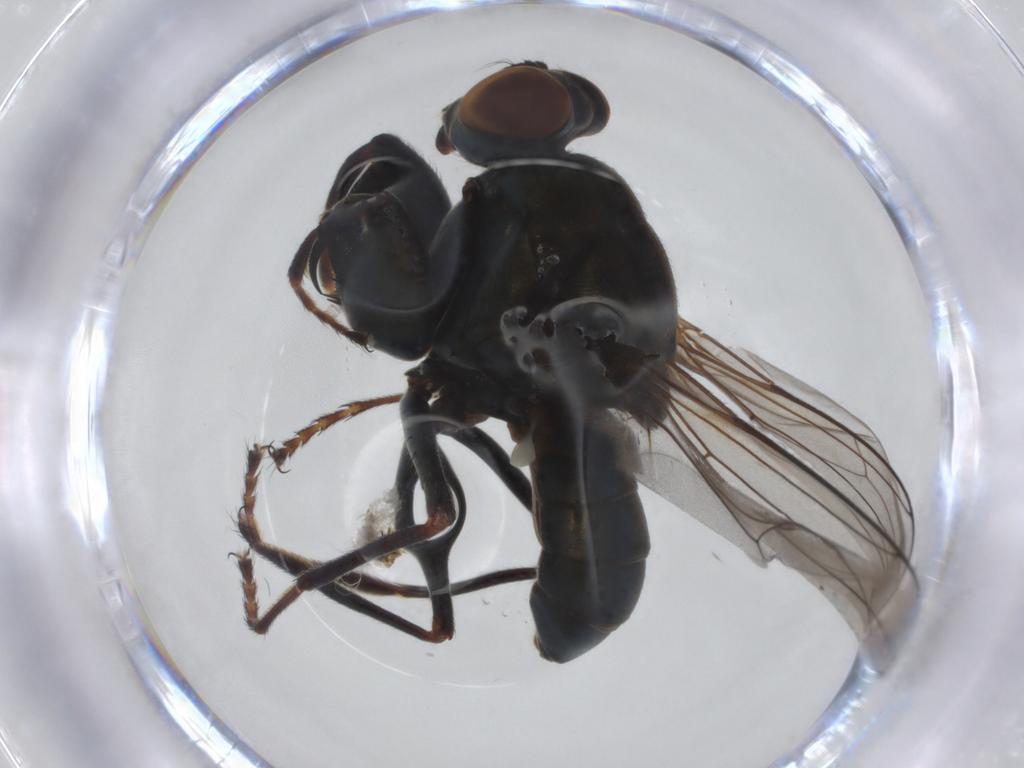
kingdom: Animalia
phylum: Arthropoda
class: Insecta
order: Diptera
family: Ephydridae
